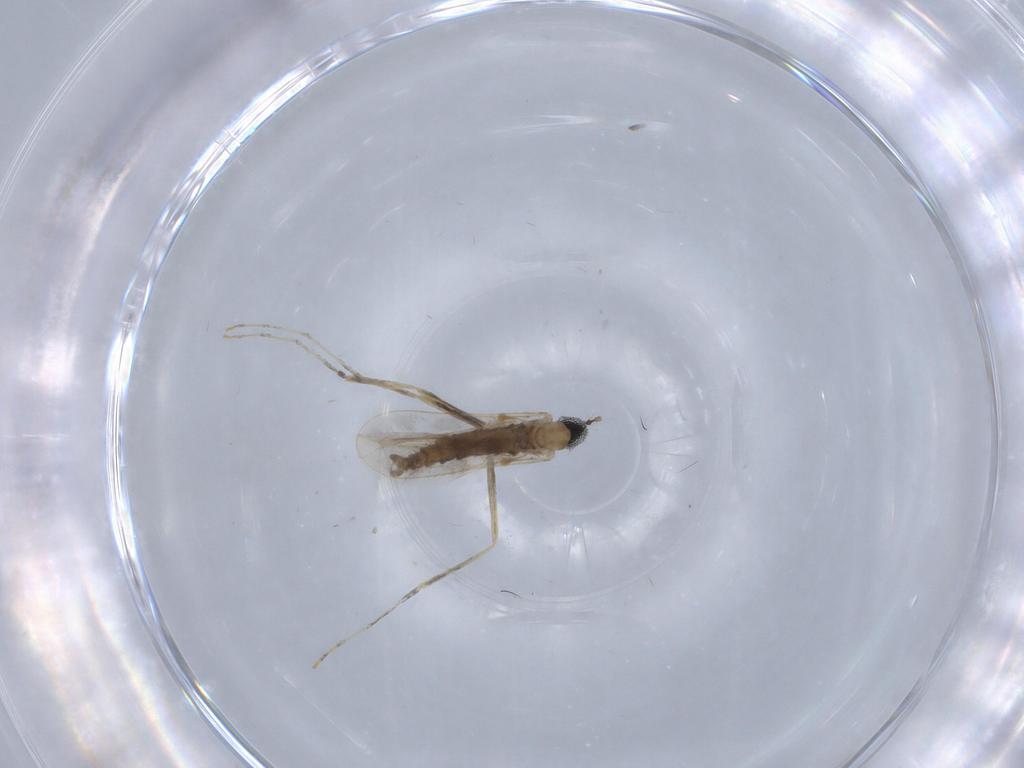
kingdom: Animalia
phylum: Arthropoda
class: Insecta
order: Diptera
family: Cecidomyiidae
